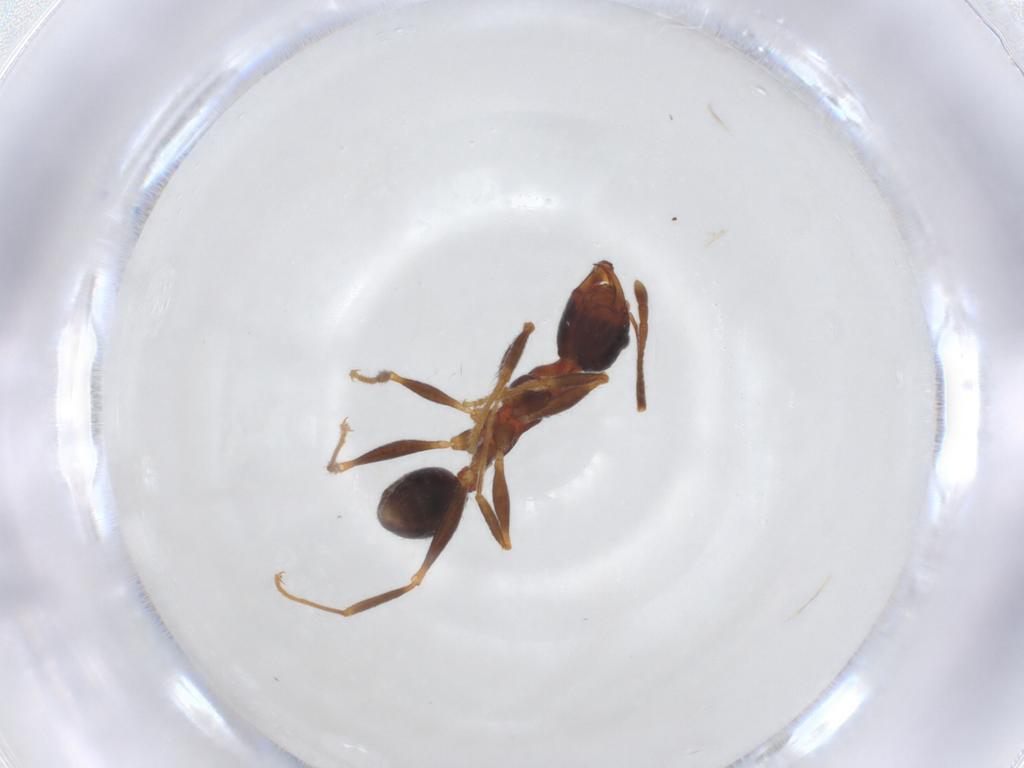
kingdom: Animalia
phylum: Arthropoda
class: Insecta
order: Hymenoptera
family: Formicidae
